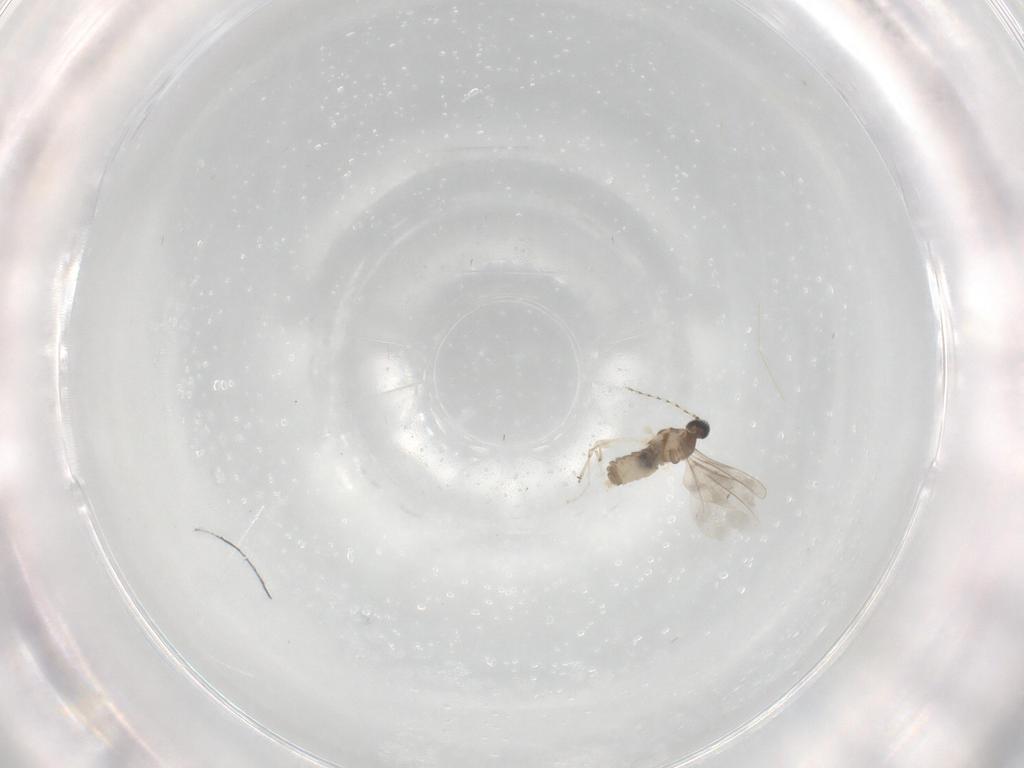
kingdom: Animalia
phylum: Arthropoda
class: Insecta
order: Diptera
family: Cecidomyiidae
